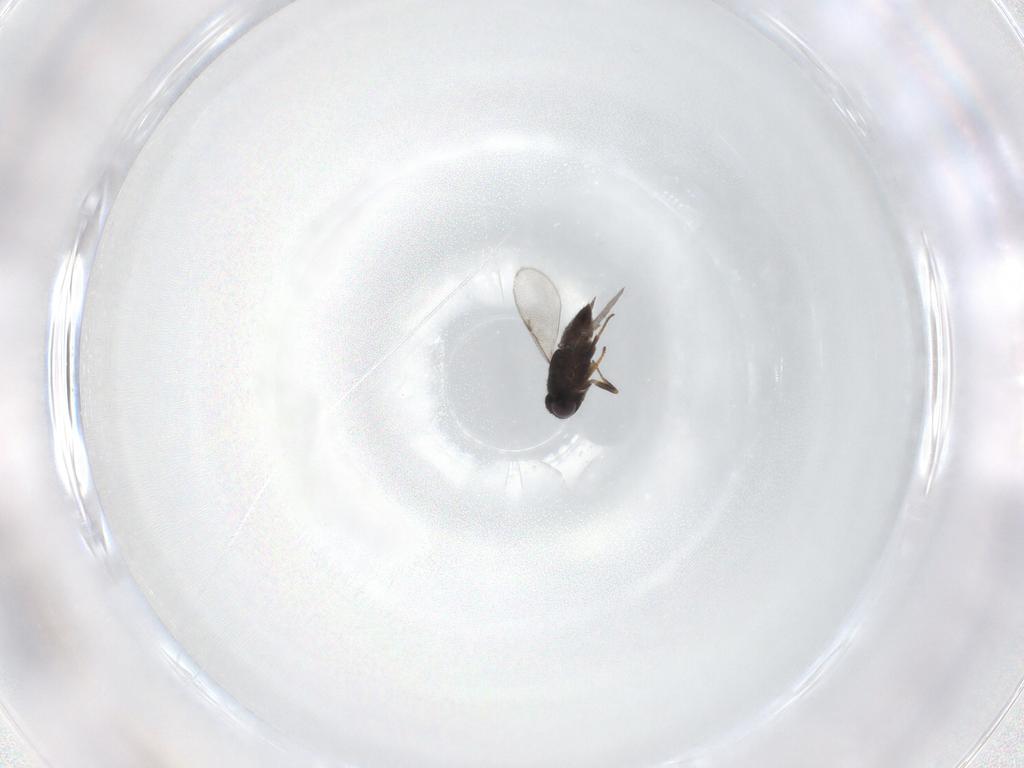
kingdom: Animalia
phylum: Arthropoda
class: Insecta
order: Hymenoptera
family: Encyrtidae
